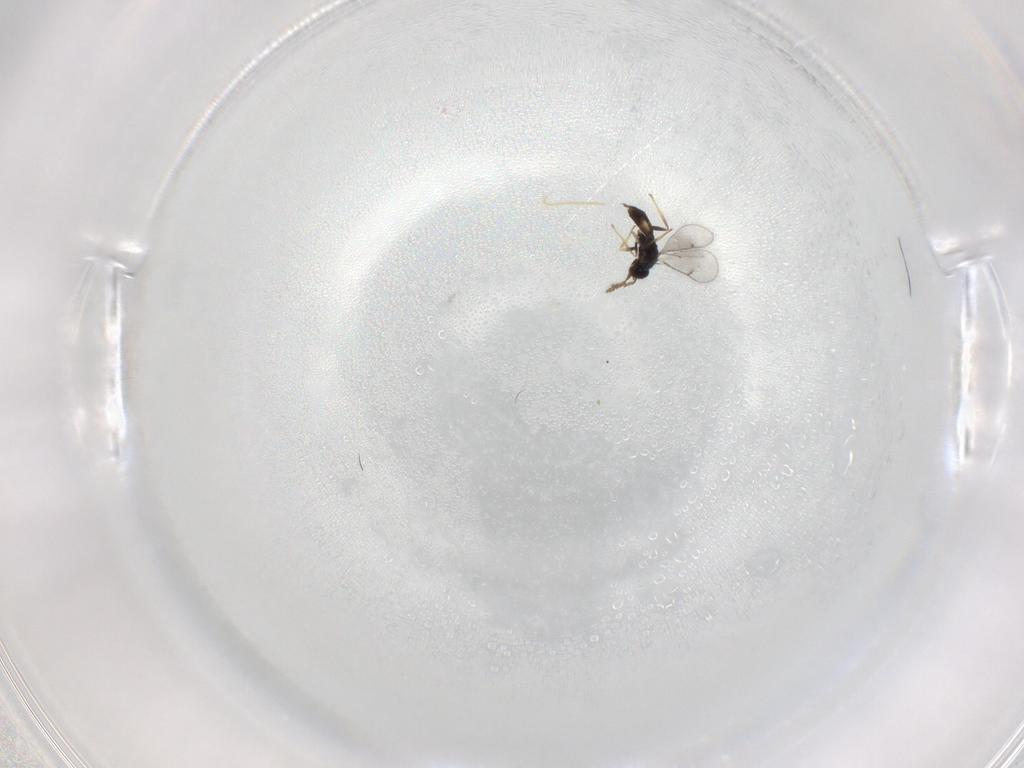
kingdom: Animalia
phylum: Arthropoda
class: Insecta
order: Hymenoptera
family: Eulophidae
